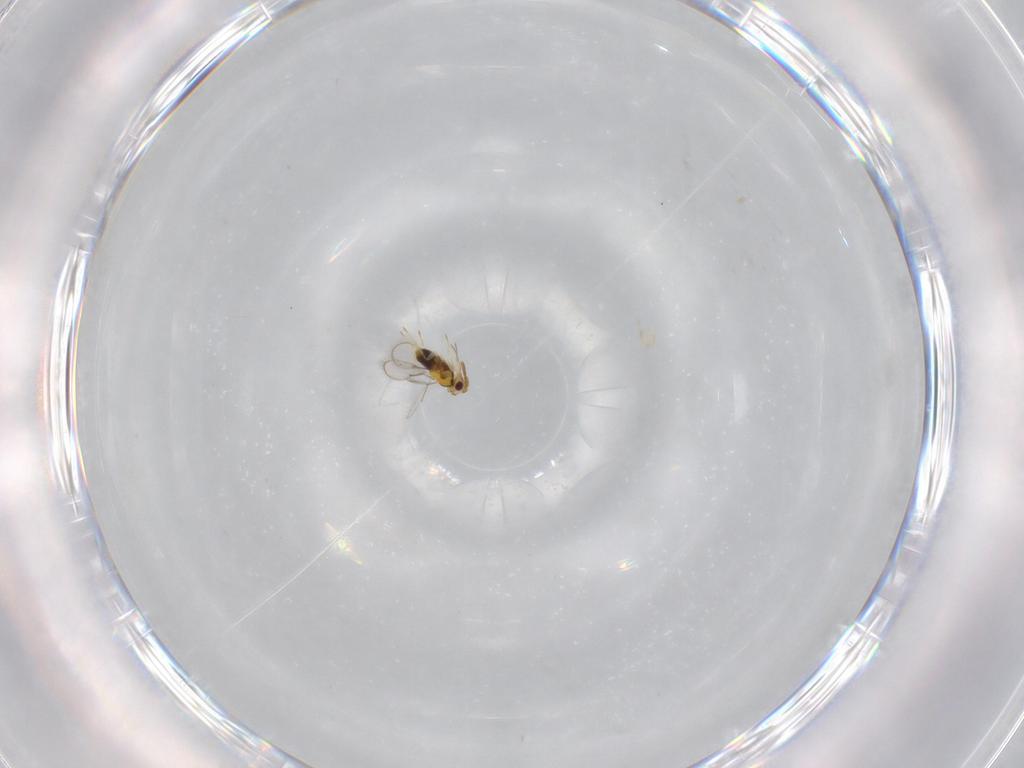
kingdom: Animalia
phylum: Arthropoda
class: Insecta
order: Hymenoptera
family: Aphelinidae
